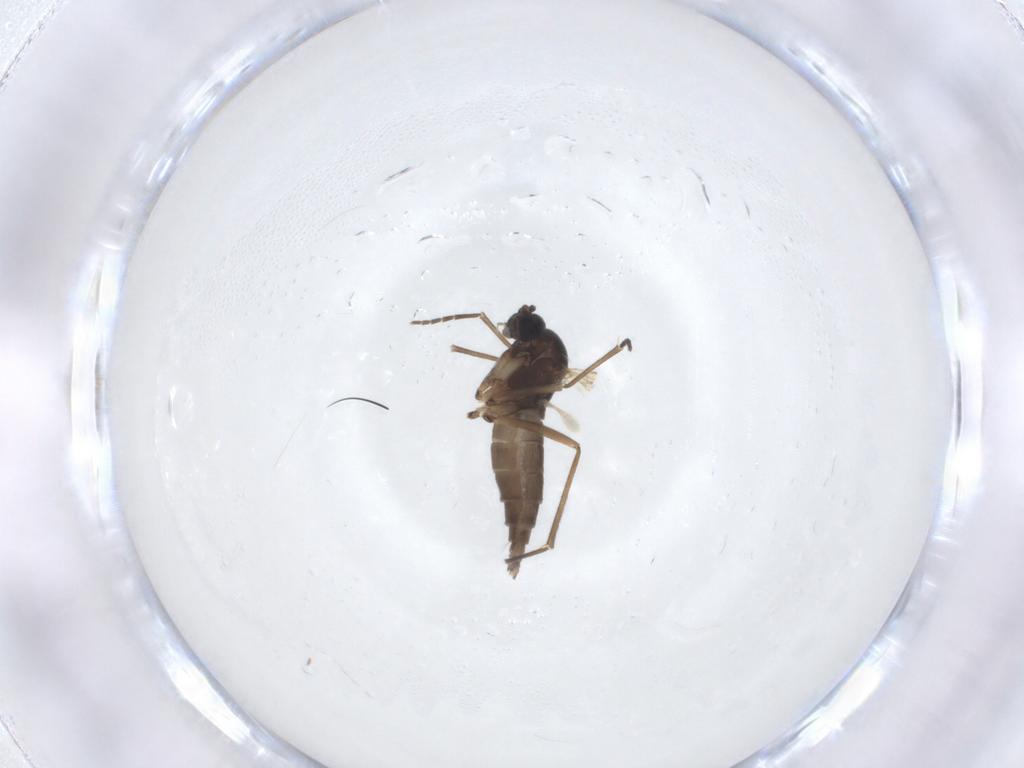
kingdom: Animalia
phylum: Arthropoda
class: Insecta
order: Diptera
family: Sciaridae
